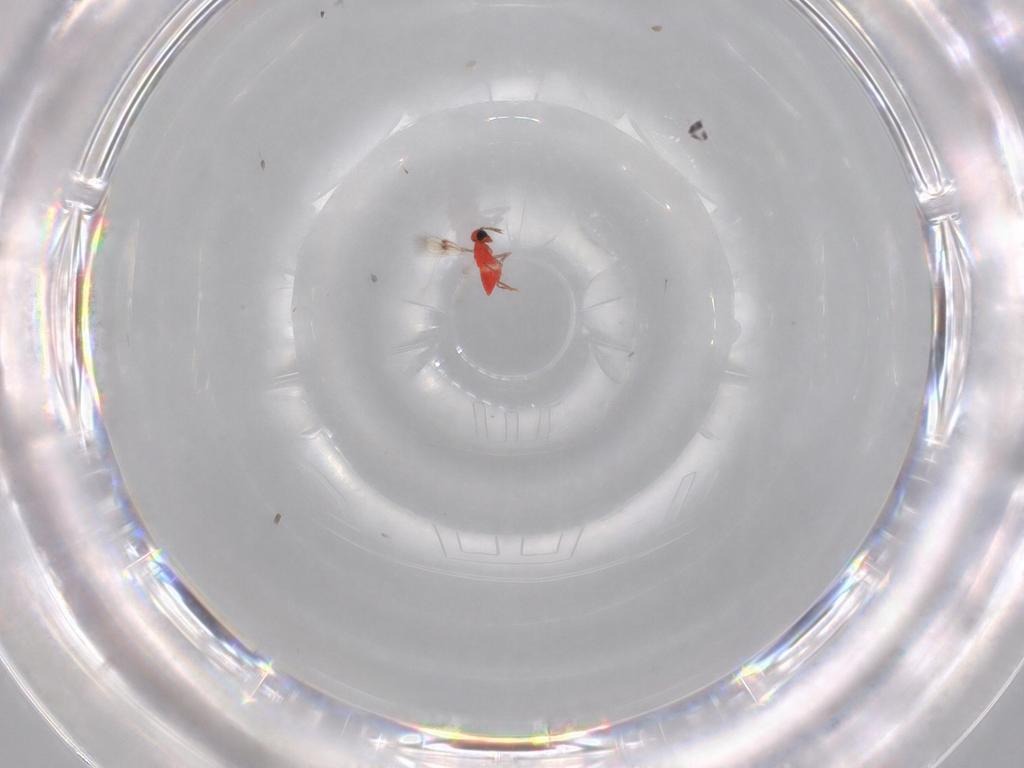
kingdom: Animalia
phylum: Arthropoda
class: Insecta
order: Hymenoptera
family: Trichogrammatidae
